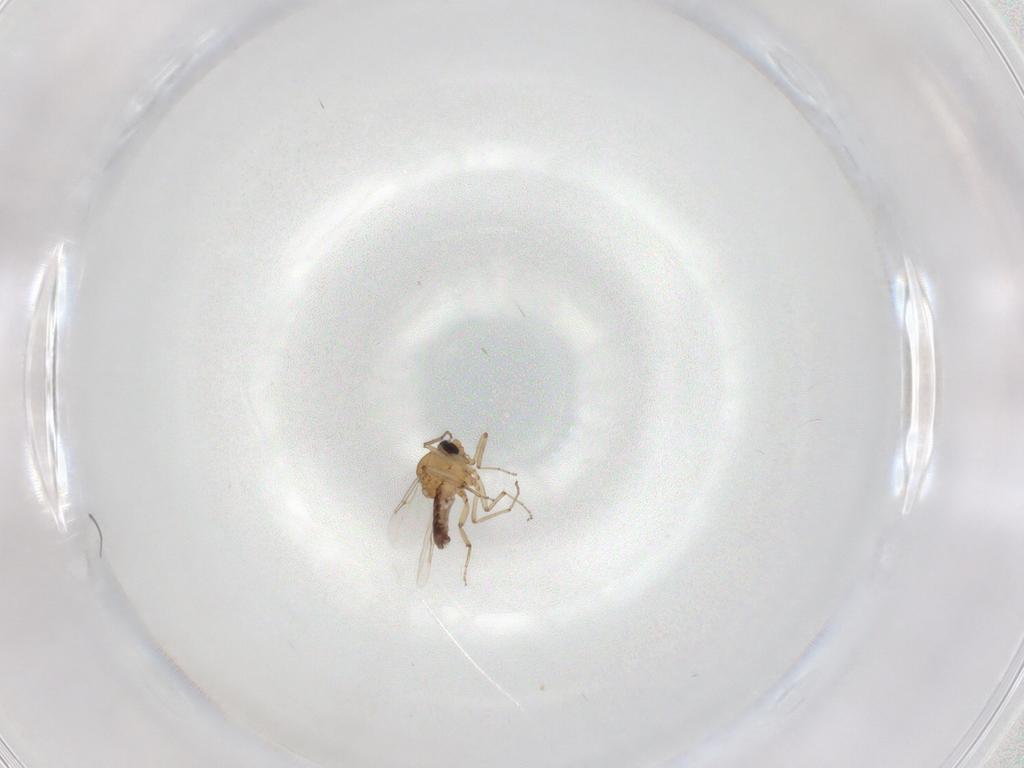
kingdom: Animalia
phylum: Arthropoda
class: Insecta
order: Diptera
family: Ceratopogonidae
